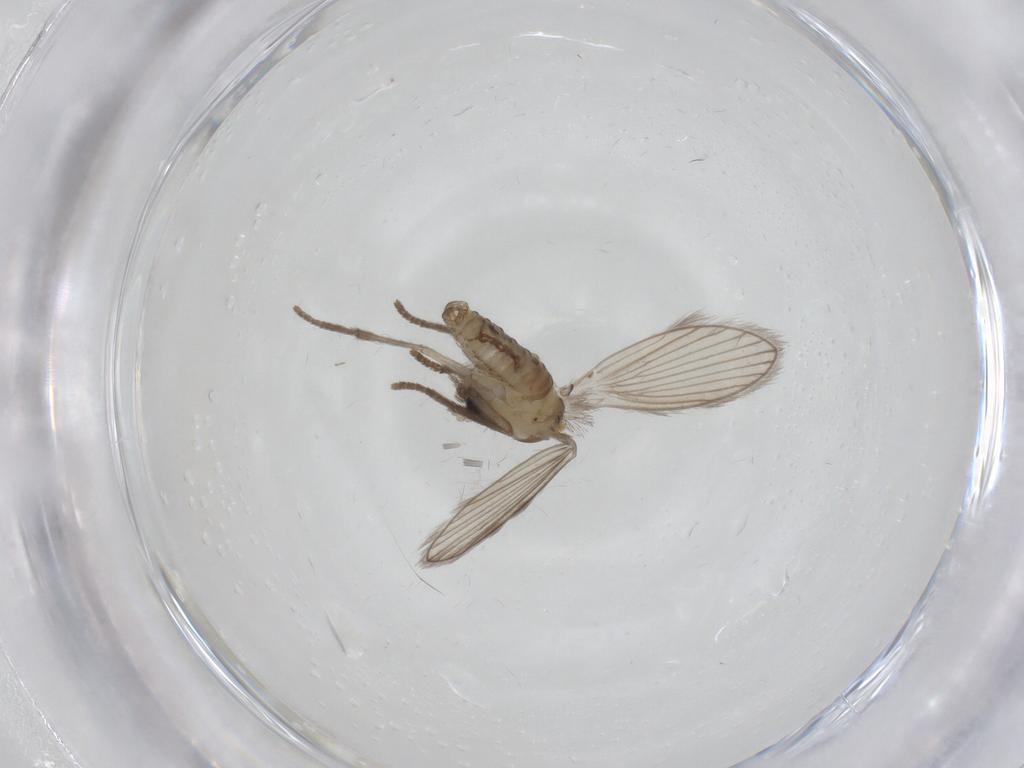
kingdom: Animalia
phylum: Arthropoda
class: Insecta
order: Diptera
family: Psychodidae
